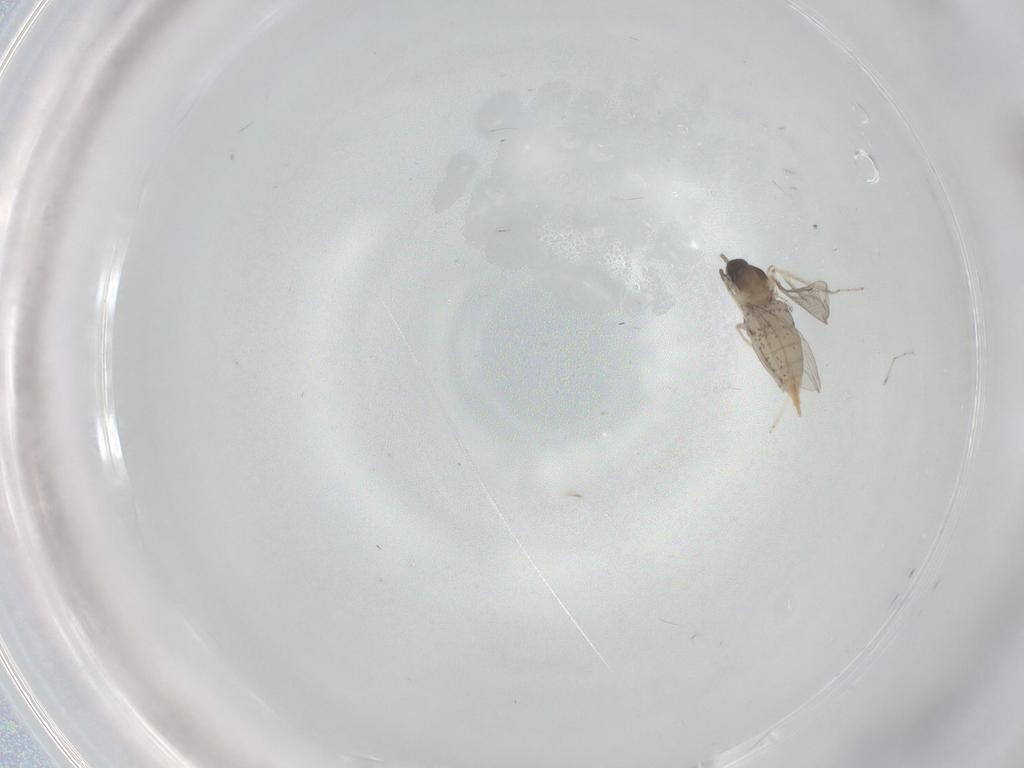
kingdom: Animalia
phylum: Arthropoda
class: Insecta
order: Diptera
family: Cecidomyiidae
